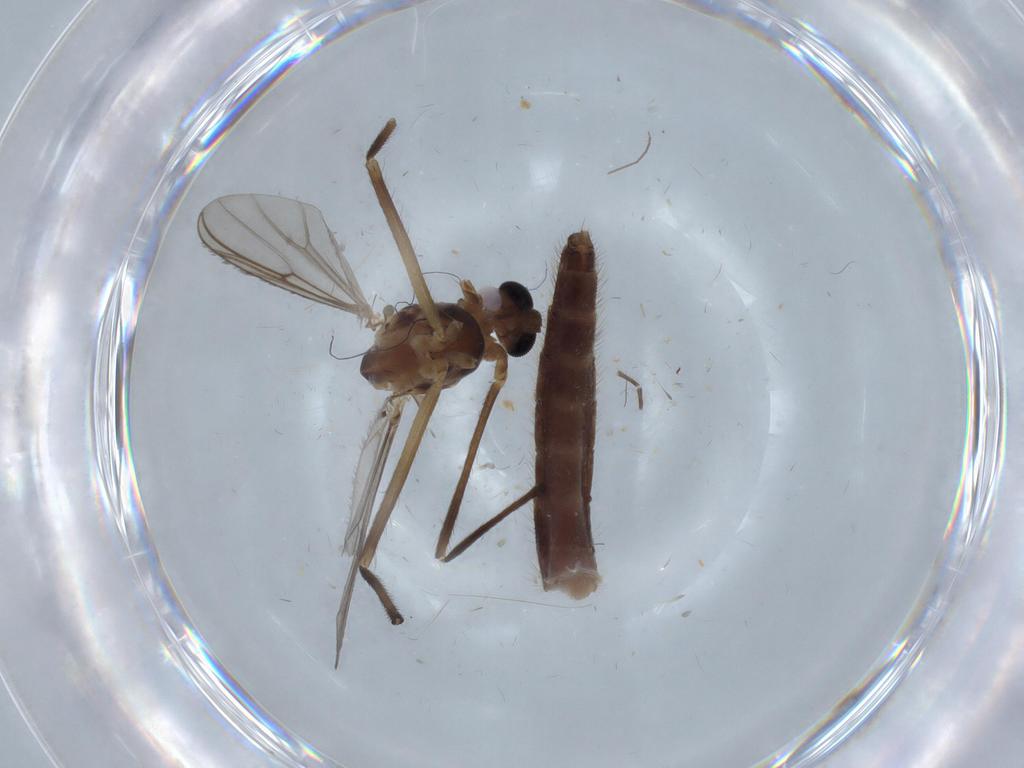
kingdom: Animalia
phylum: Arthropoda
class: Insecta
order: Diptera
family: Chironomidae
